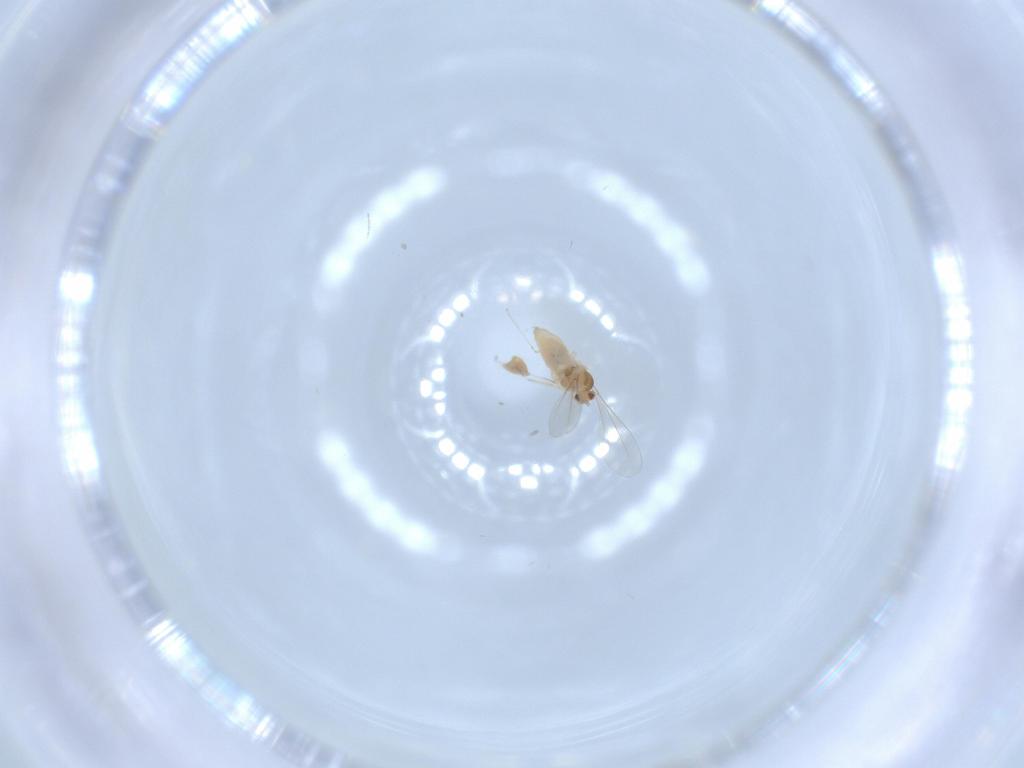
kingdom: Animalia
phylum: Arthropoda
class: Insecta
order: Diptera
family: Cecidomyiidae
